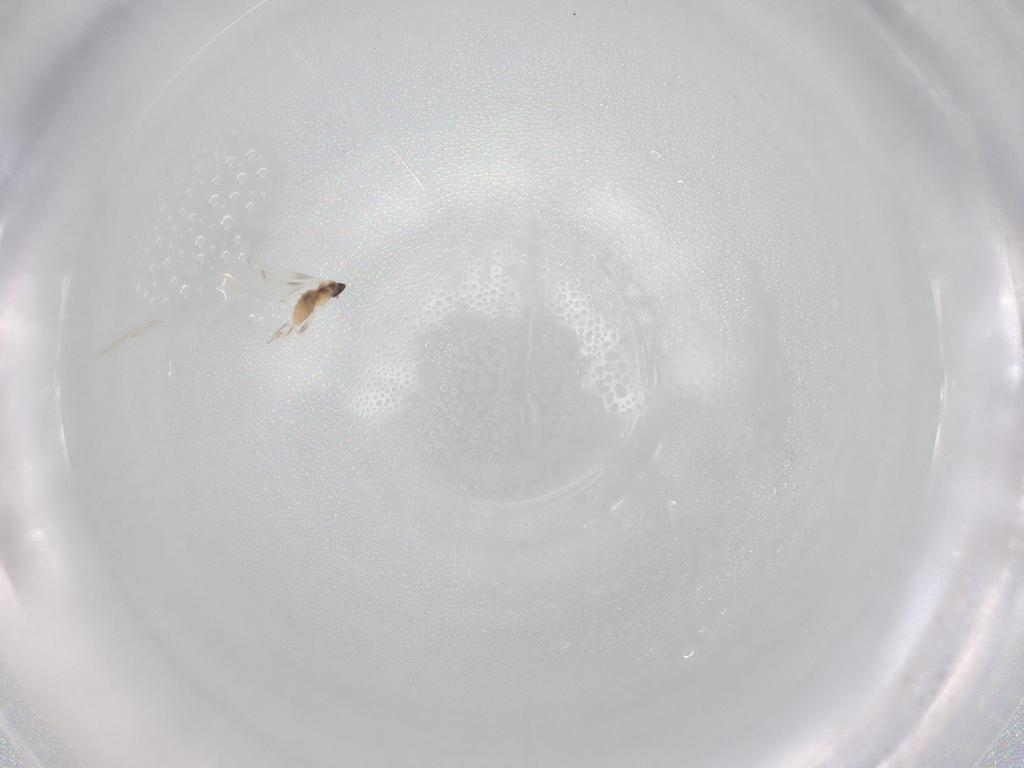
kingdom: Animalia
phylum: Arthropoda
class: Insecta
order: Diptera
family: Cecidomyiidae
